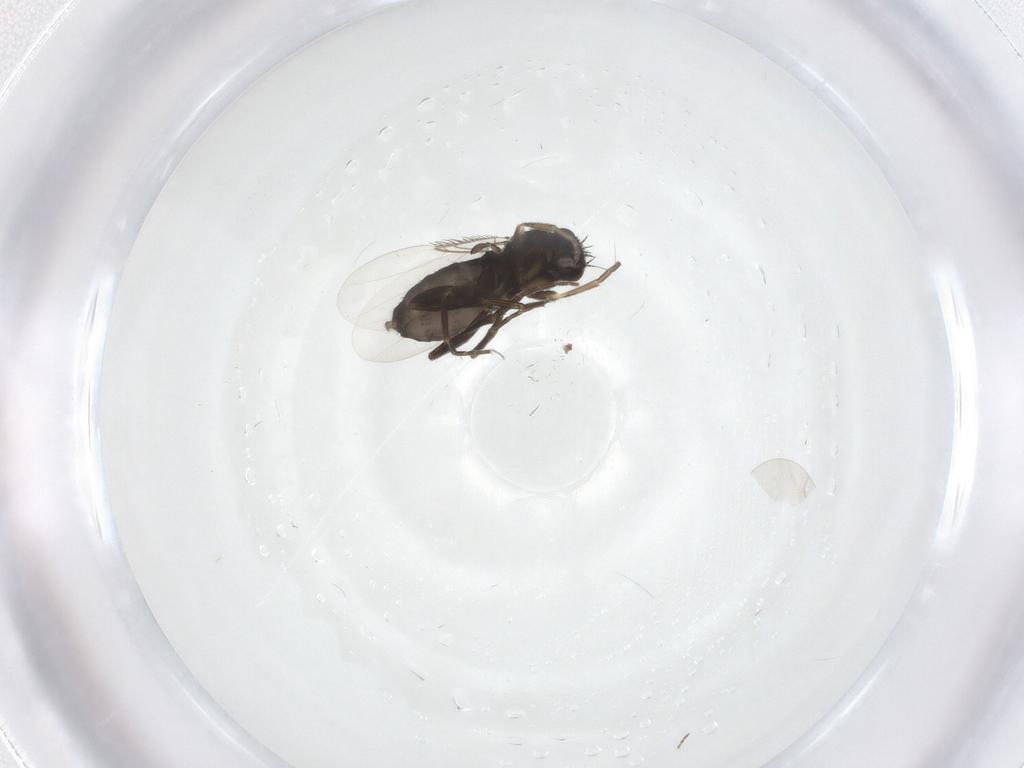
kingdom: Animalia
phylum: Arthropoda
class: Insecta
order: Diptera
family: Phoridae
